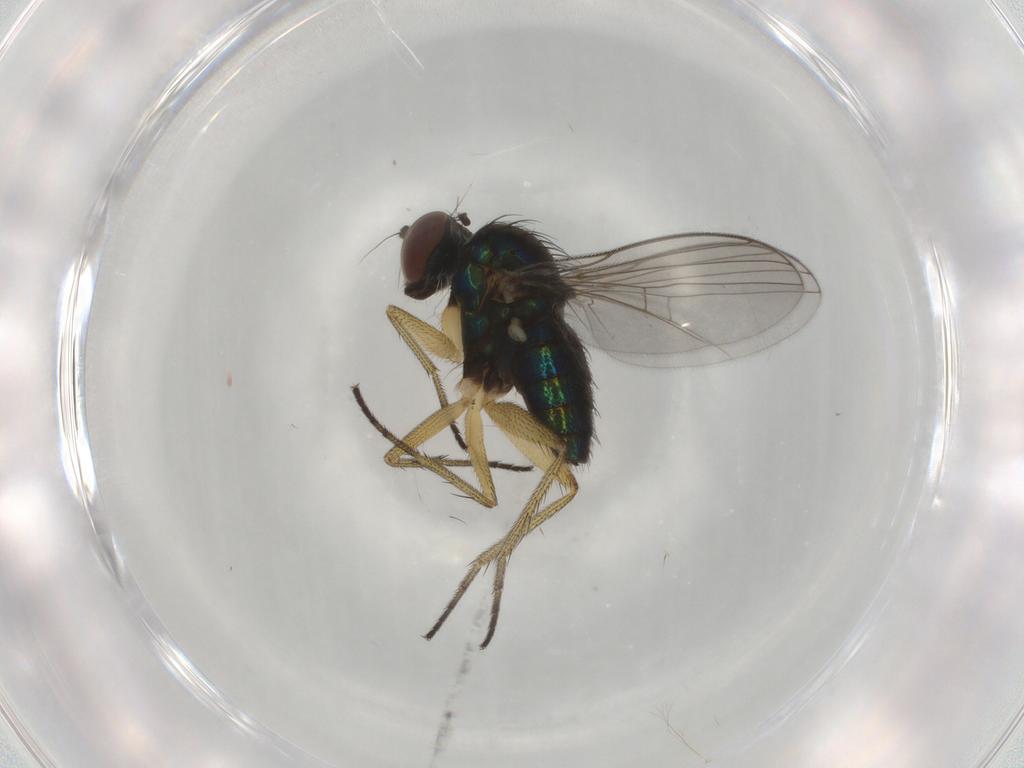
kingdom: Animalia
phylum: Arthropoda
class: Insecta
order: Diptera
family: Dolichopodidae
